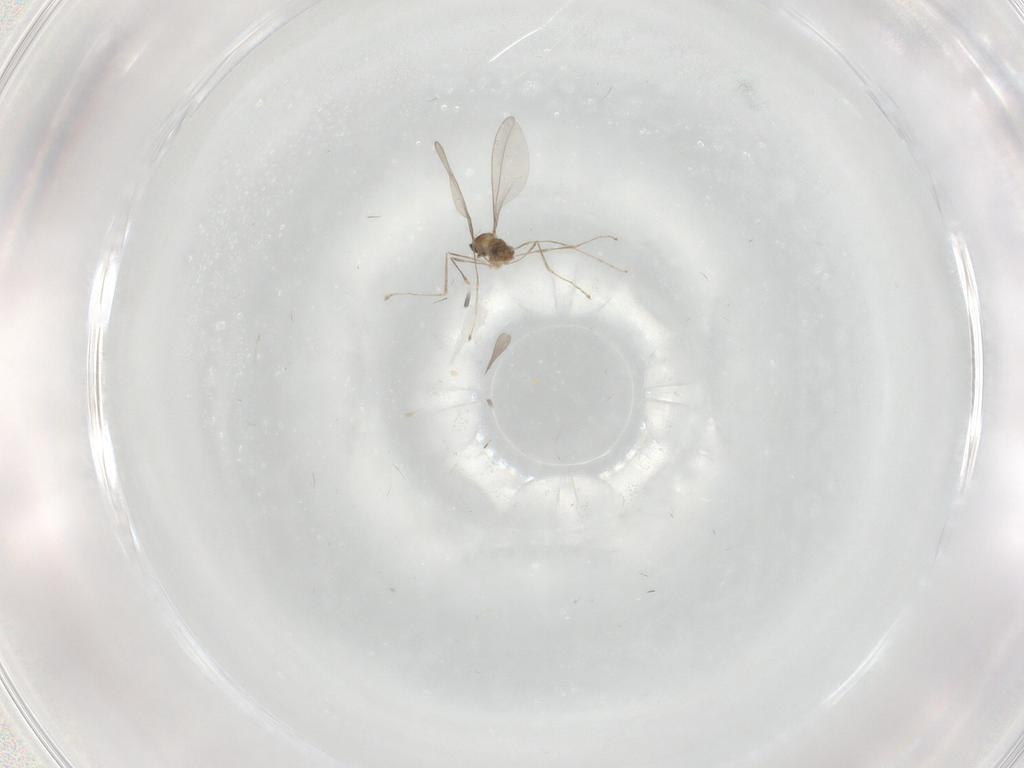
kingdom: Animalia
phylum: Arthropoda
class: Insecta
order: Diptera
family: Cecidomyiidae
